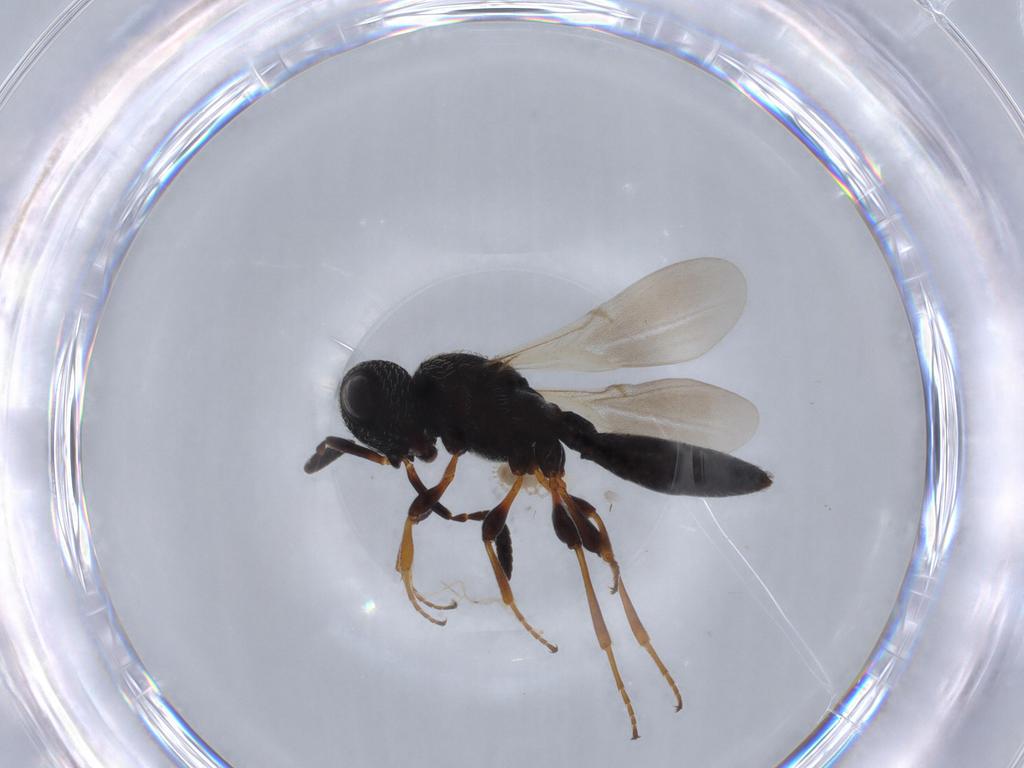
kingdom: Animalia
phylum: Arthropoda
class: Insecta
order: Hymenoptera
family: Scelionidae
